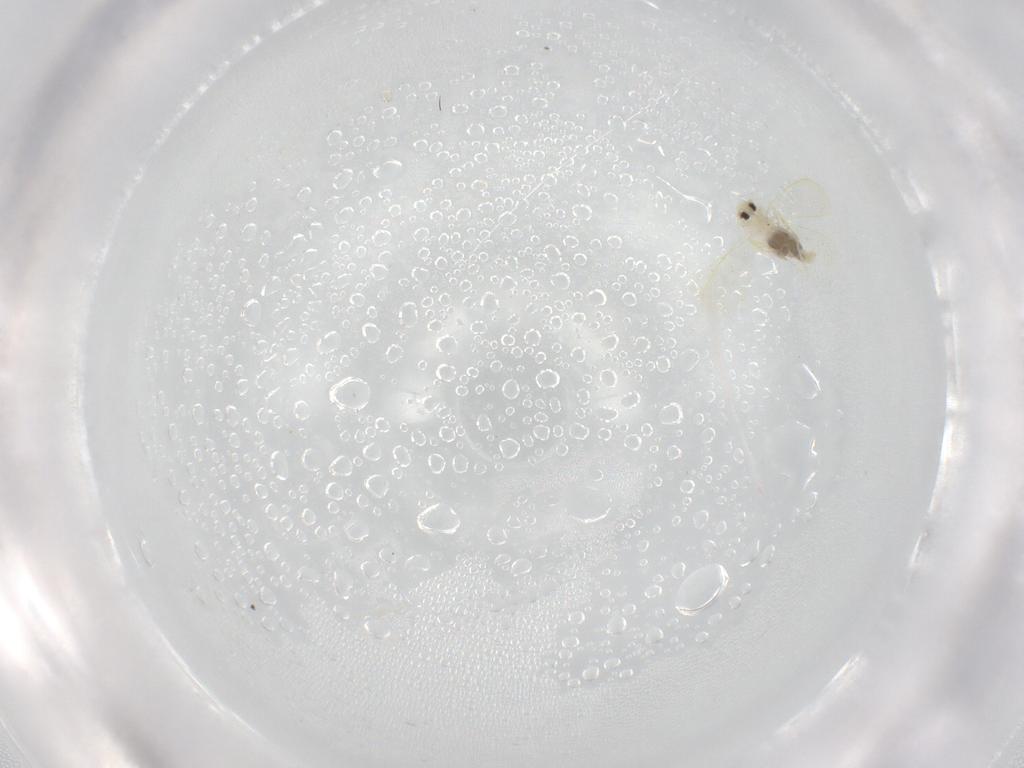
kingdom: Animalia
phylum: Arthropoda
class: Insecta
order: Hemiptera
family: Aleyrodidae
